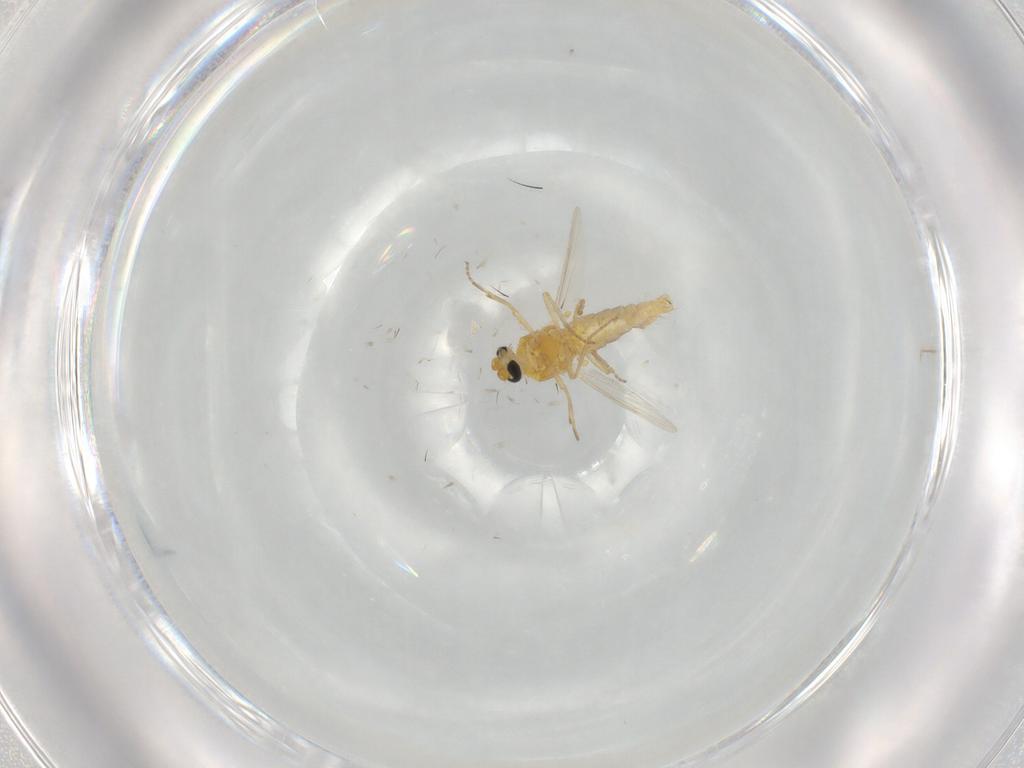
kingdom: Animalia
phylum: Arthropoda
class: Insecta
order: Diptera
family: Ceratopogonidae
